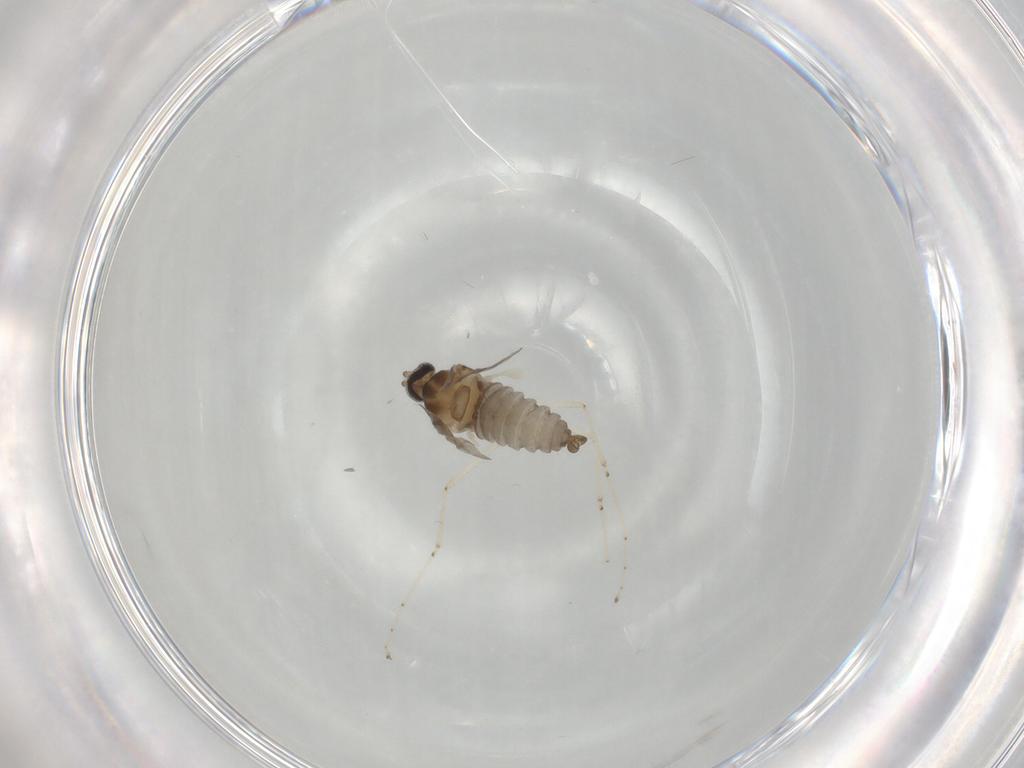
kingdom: Animalia
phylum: Arthropoda
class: Insecta
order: Diptera
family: Cecidomyiidae
